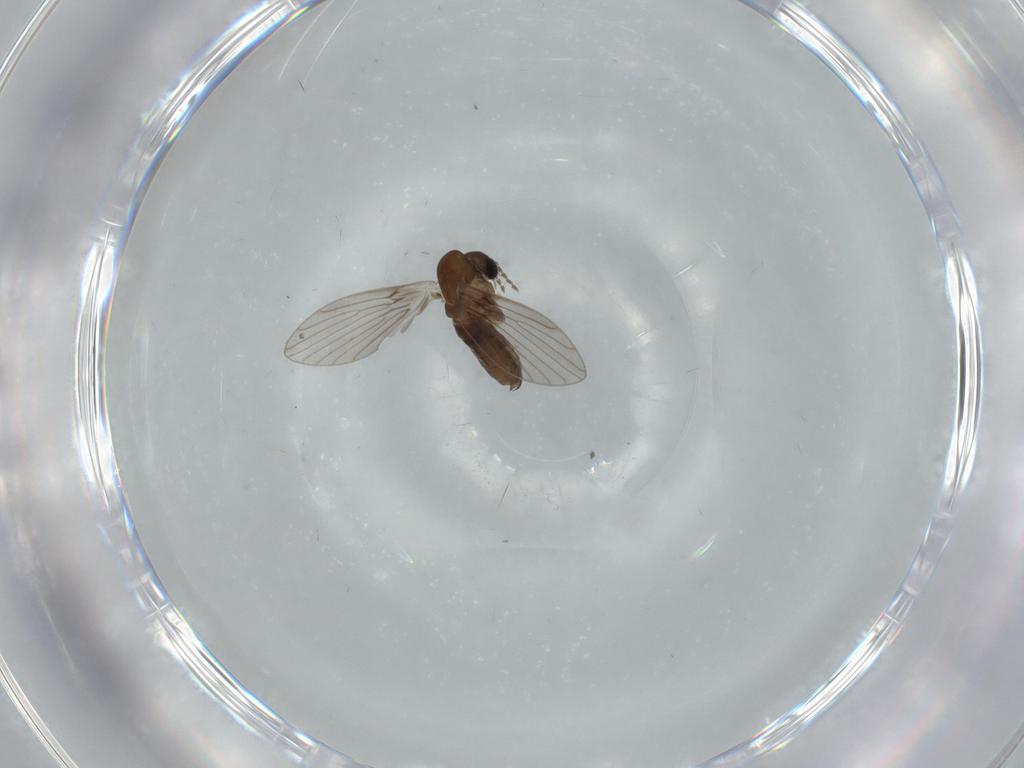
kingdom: Animalia
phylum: Arthropoda
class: Insecta
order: Diptera
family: Psychodidae
